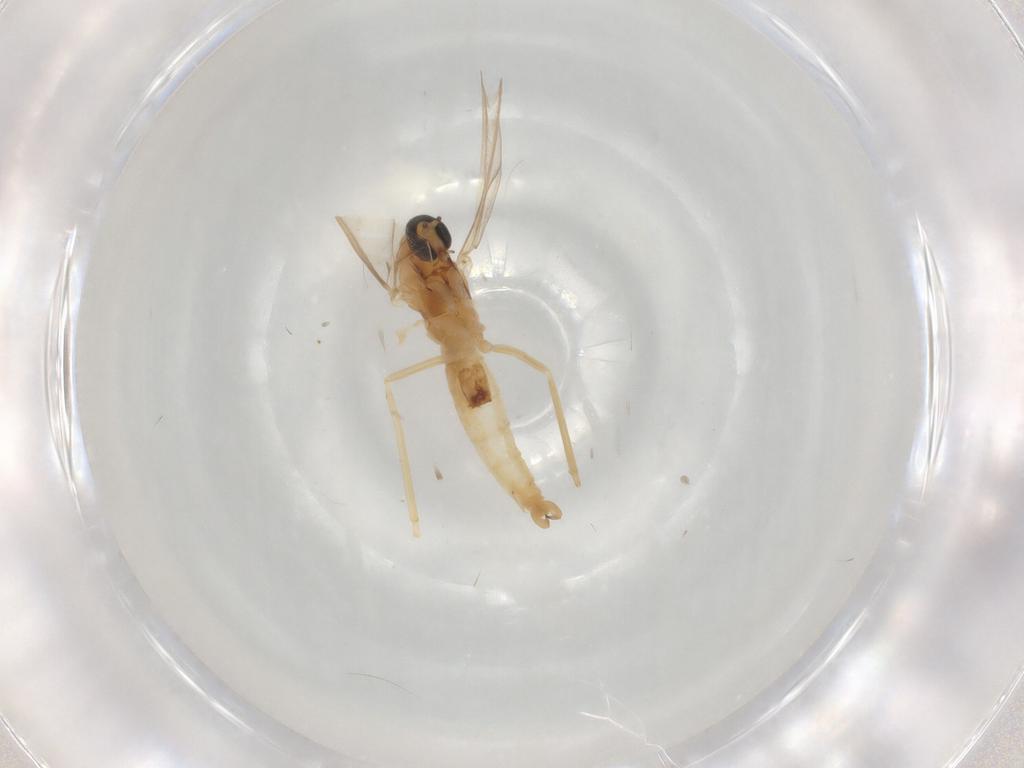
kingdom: Animalia
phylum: Arthropoda
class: Insecta
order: Diptera
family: Cecidomyiidae
